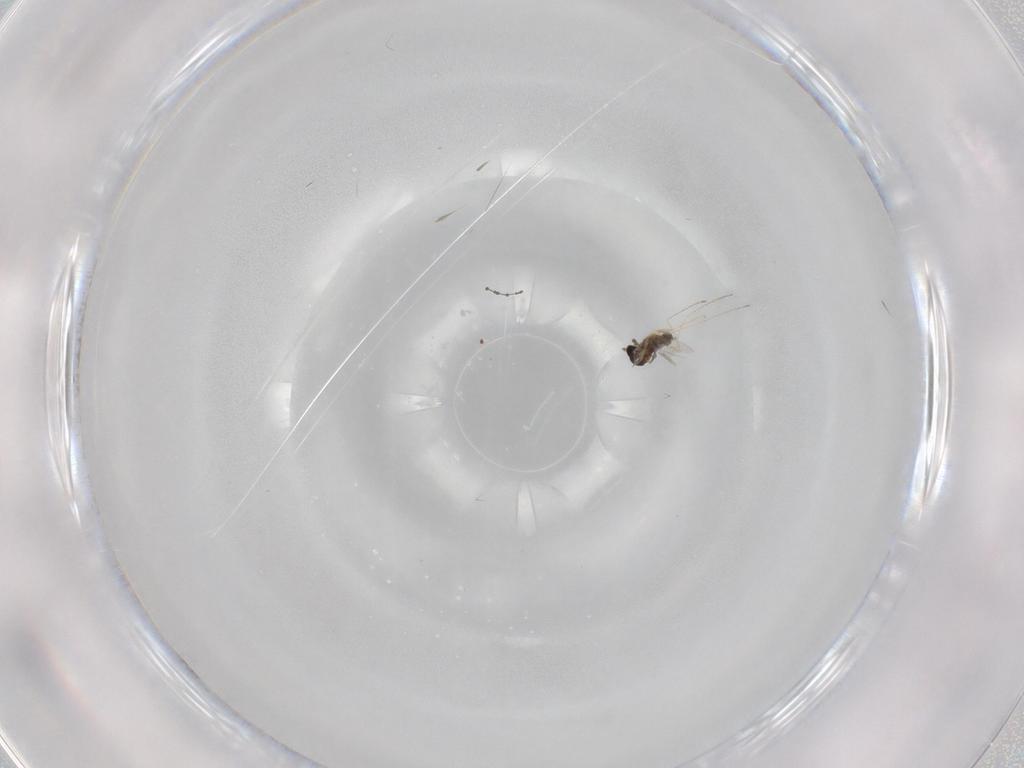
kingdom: Animalia
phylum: Arthropoda
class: Insecta
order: Diptera
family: Cecidomyiidae
